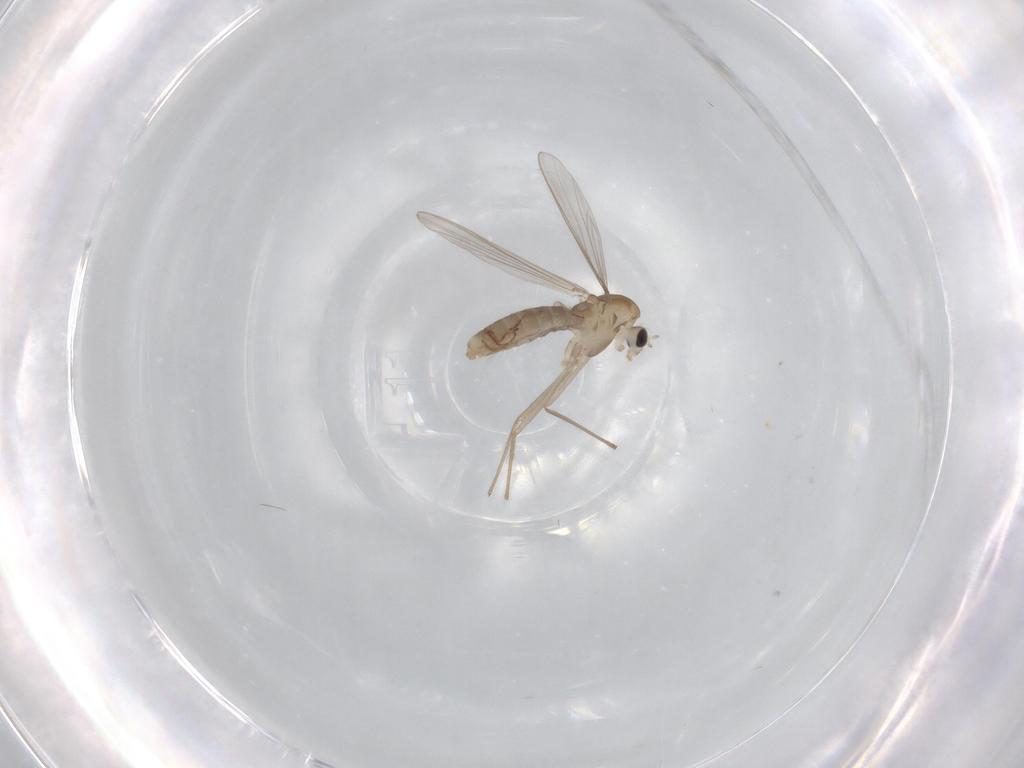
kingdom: Animalia
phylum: Arthropoda
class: Insecta
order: Diptera
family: Chironomidae
